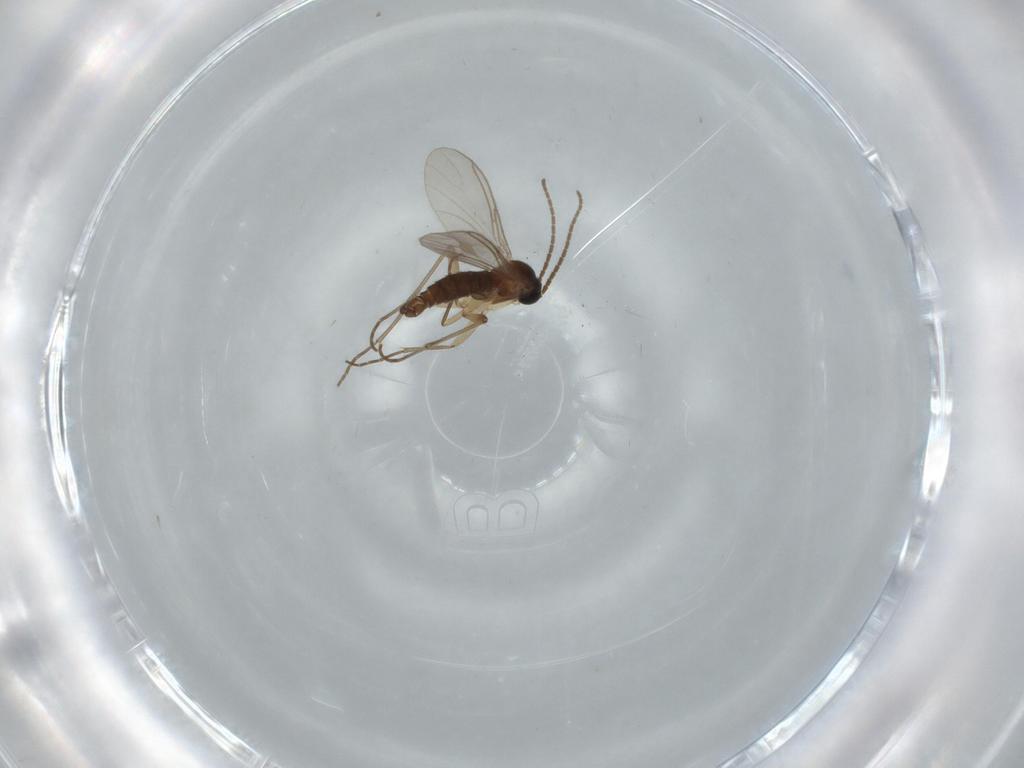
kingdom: Animalia
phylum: Arthropoda
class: Insecta
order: Diptera
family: Sciaridae
